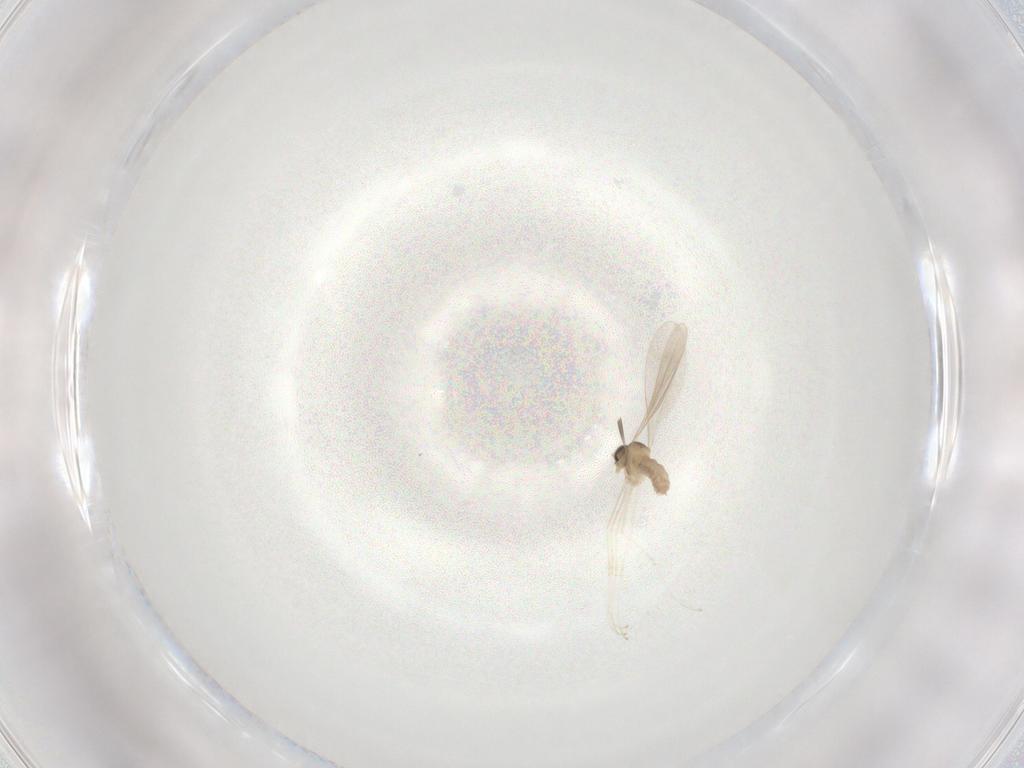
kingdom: Animalia
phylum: Arthropoda
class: Insecta
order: Diptera
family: Cecidomyiidae
